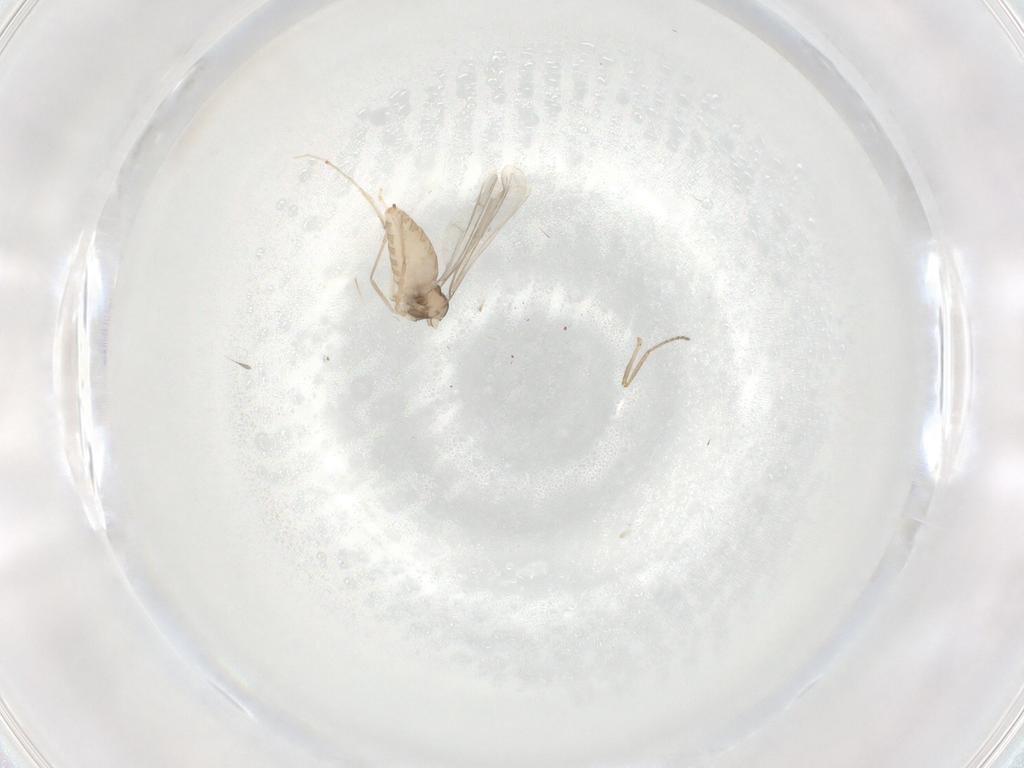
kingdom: Animalia
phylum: Arthropoda
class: Insecta
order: Diptera
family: Cecidomyiidae
